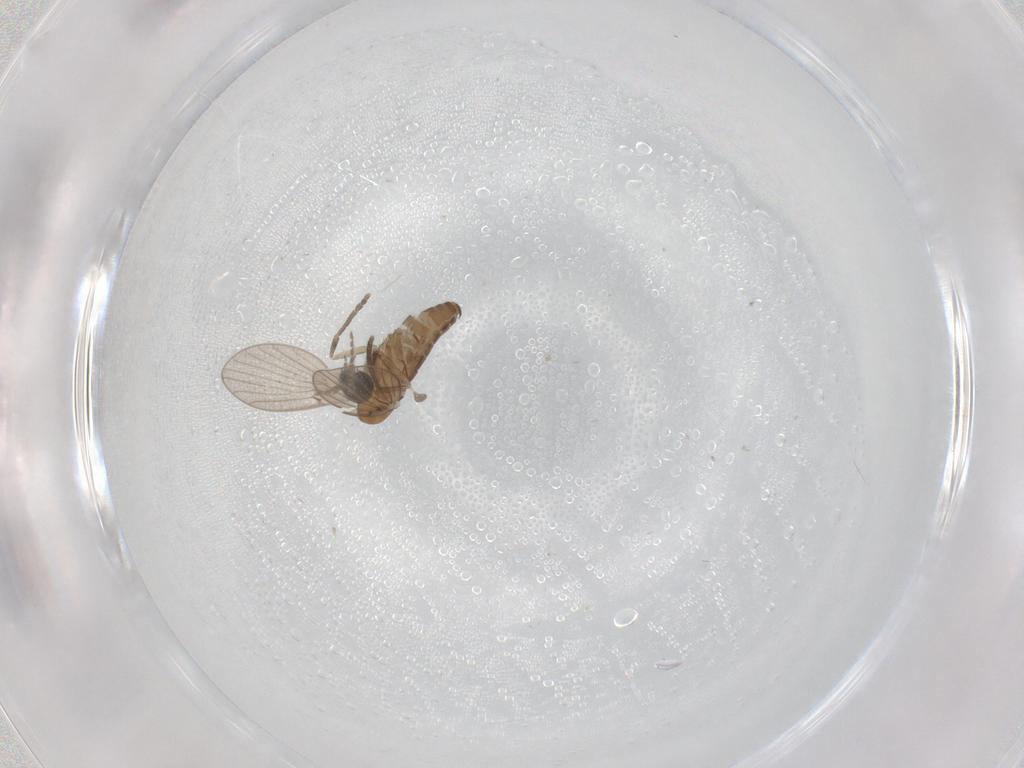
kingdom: Animalia
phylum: Arthropoda
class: Insecta
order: Diptera
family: Psychodidae
